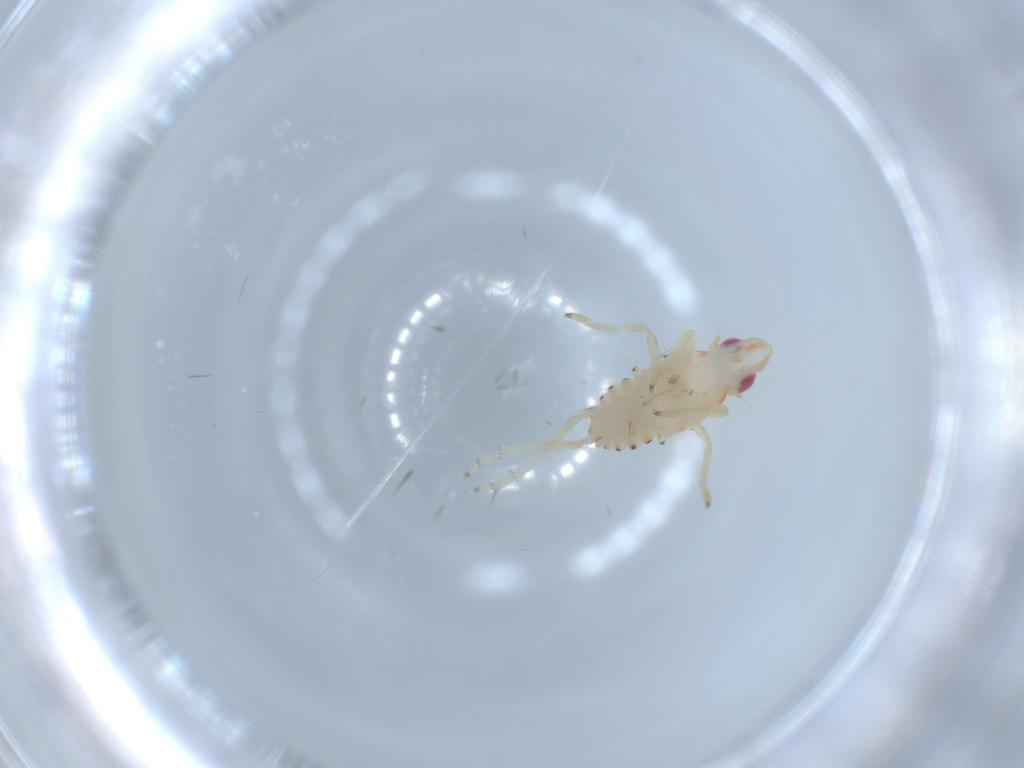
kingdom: Animalia
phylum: Arthropoda
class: Insecta
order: Hemiptera
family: Tropiduchidae
